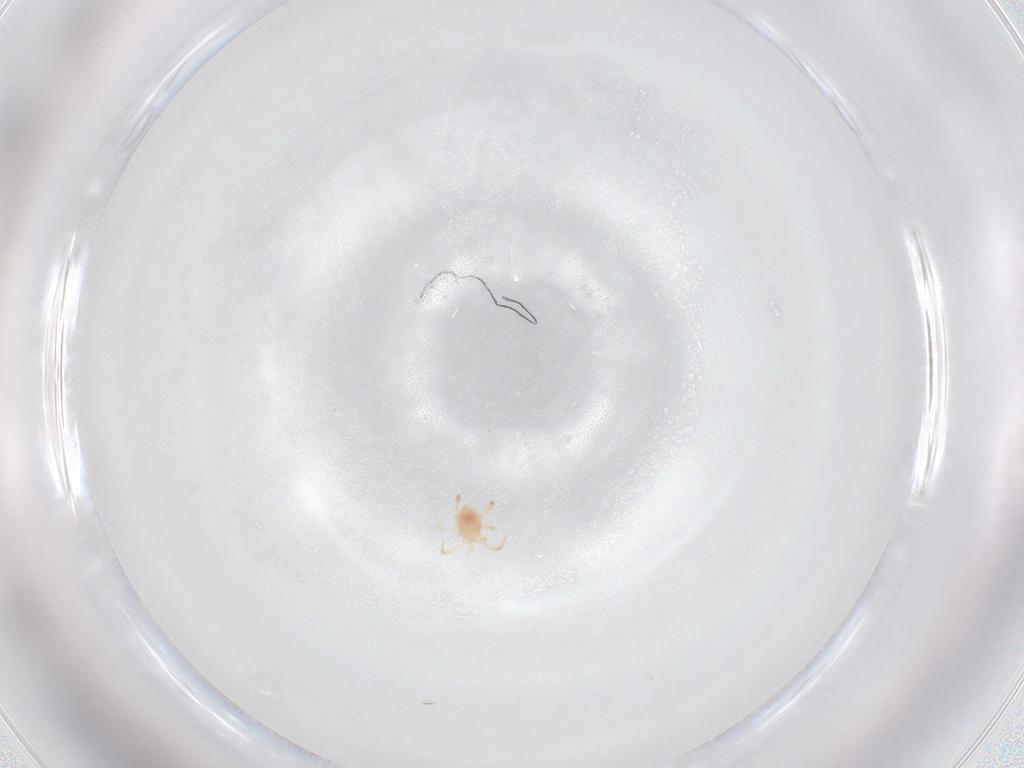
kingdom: Animalia
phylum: Arthropoda
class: Arachnida
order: Mesostigmata
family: Phytoseiidae
